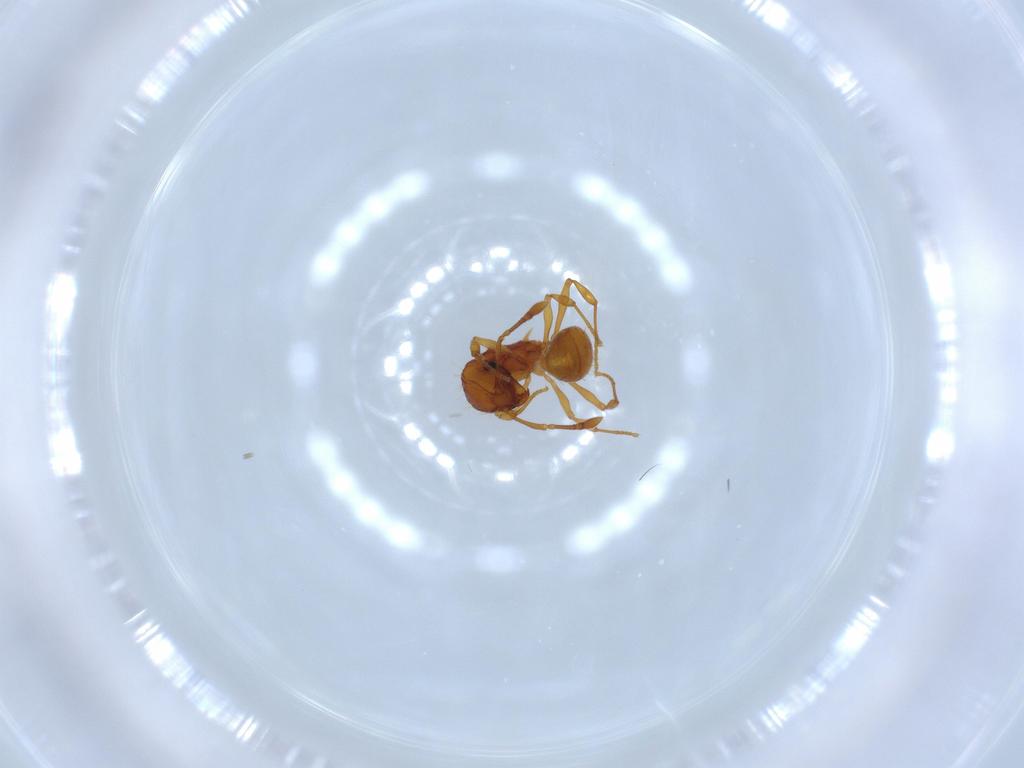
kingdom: Animalia
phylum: Arthropoda
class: Insecta
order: Hymenoptera
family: Formicidae
